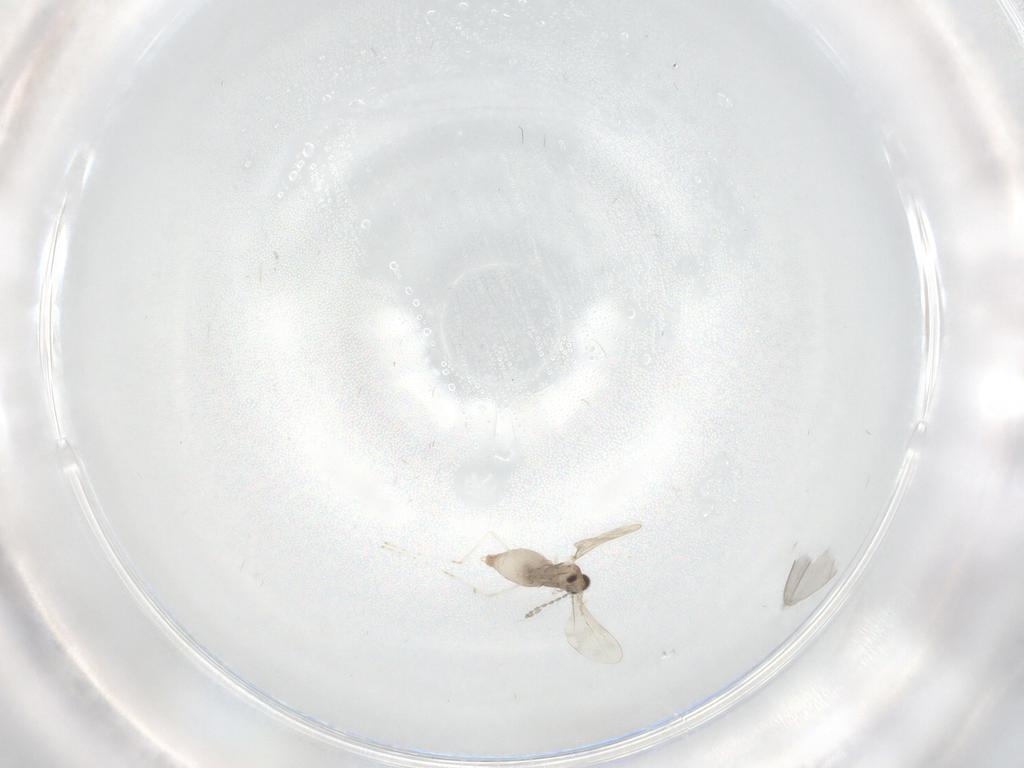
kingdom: Animalia
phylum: Arthropoda
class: Insecta
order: Diptera
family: Cecidomyiidae
